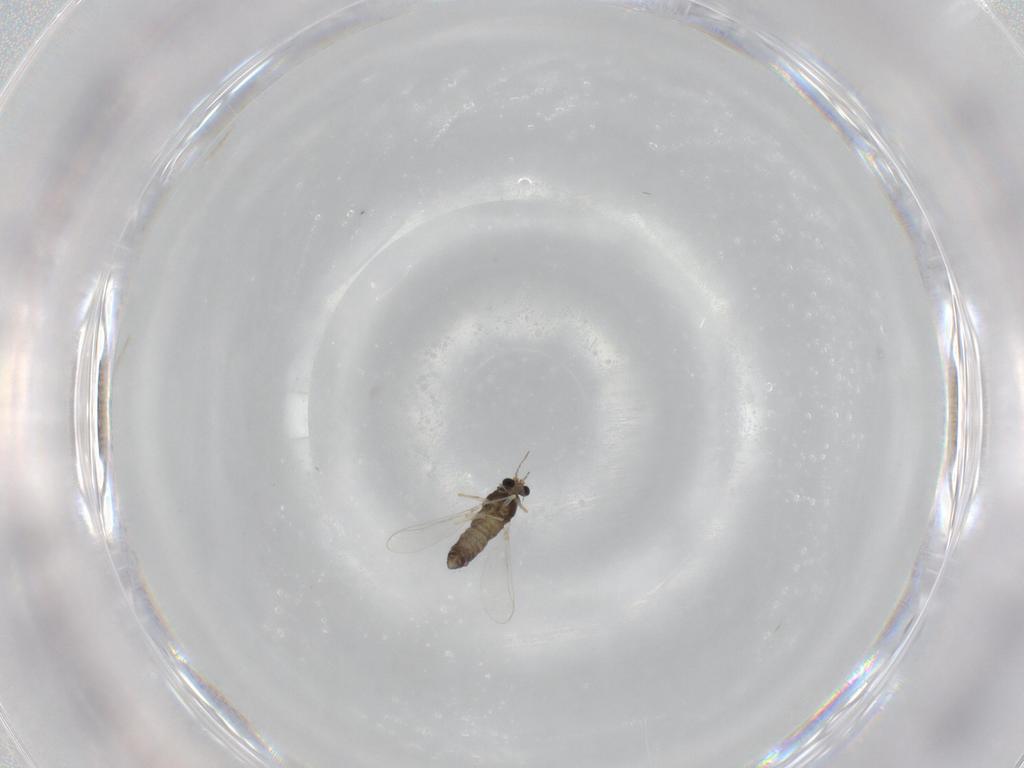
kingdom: Animalia
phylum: Arthropoda
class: Insecta
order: Diptera
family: Chironomidae
